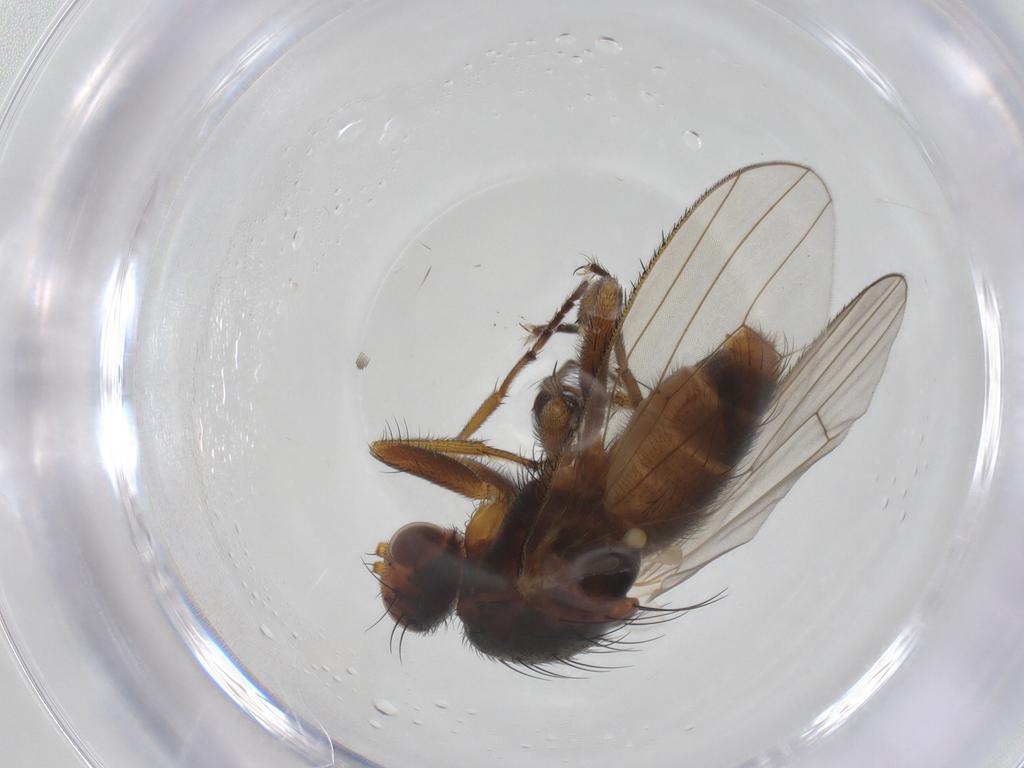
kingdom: Animalia
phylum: Arthropoda
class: Insecta
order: Diptera
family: Heleomyzidae
